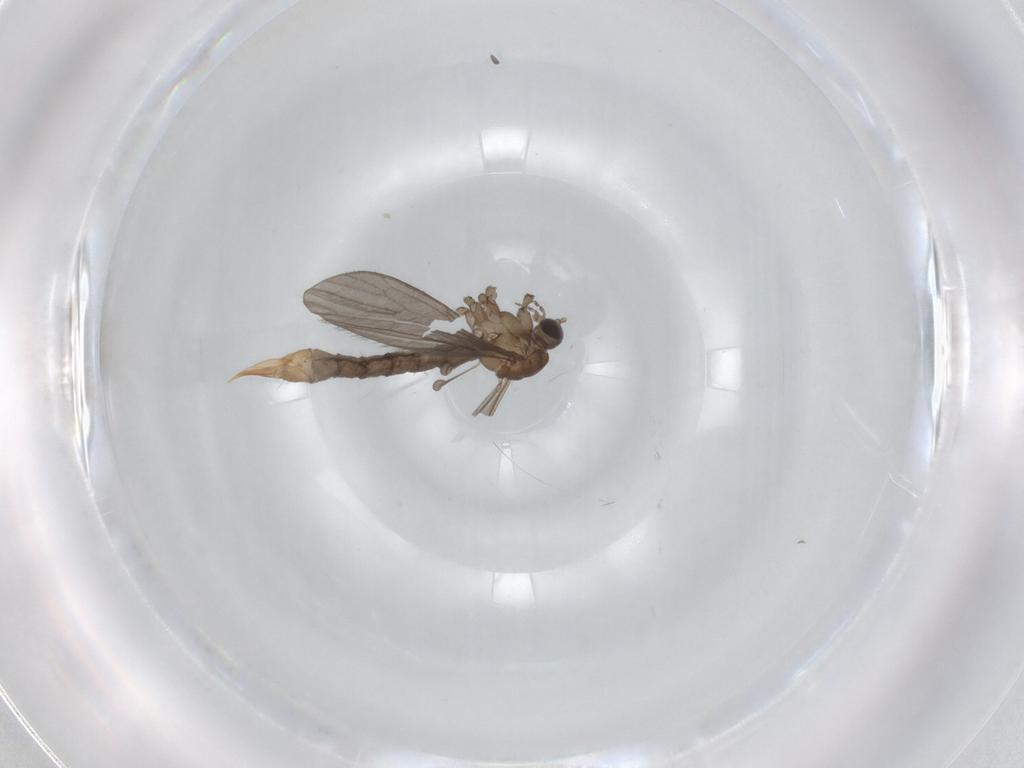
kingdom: Animalia
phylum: Arthropoda
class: Insecta
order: Diptera
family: Limoniidae
